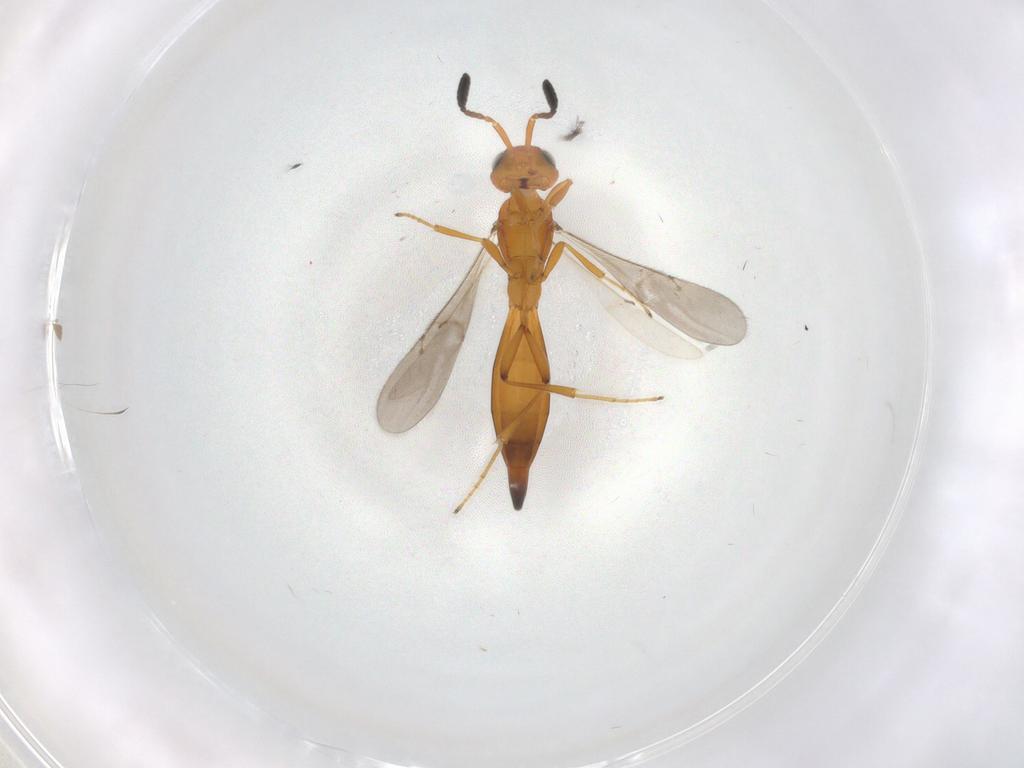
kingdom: Animalia
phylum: Arthropoda
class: Insecta
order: Hymenoptera
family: Scelionidae
